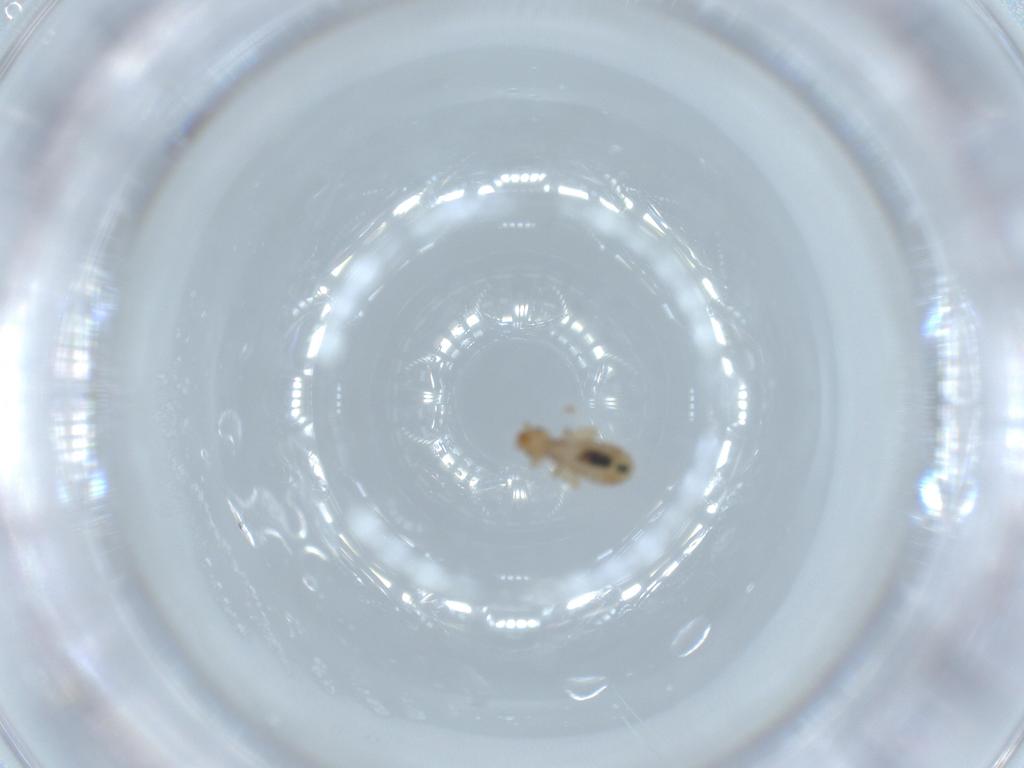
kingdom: Animalia
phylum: Arthropoda
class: Insecta
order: Psocodea
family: Liposcelididae
